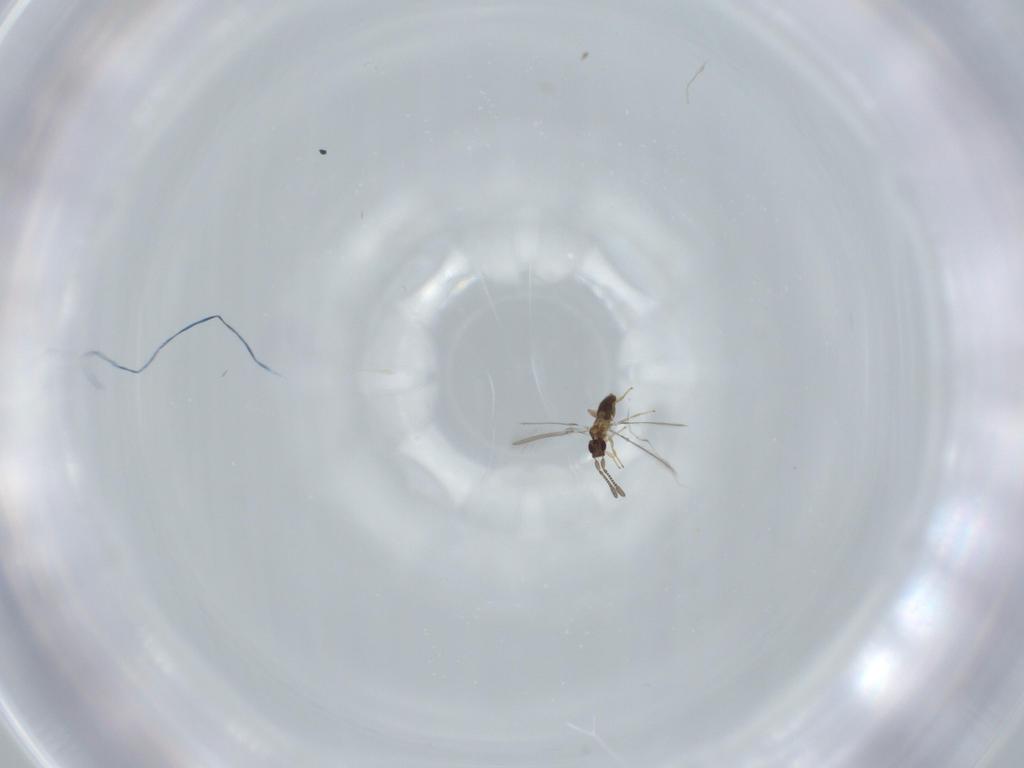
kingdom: Animalia
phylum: Arthropoda
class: Insecta
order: Hymenoptera
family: Mymaridae
